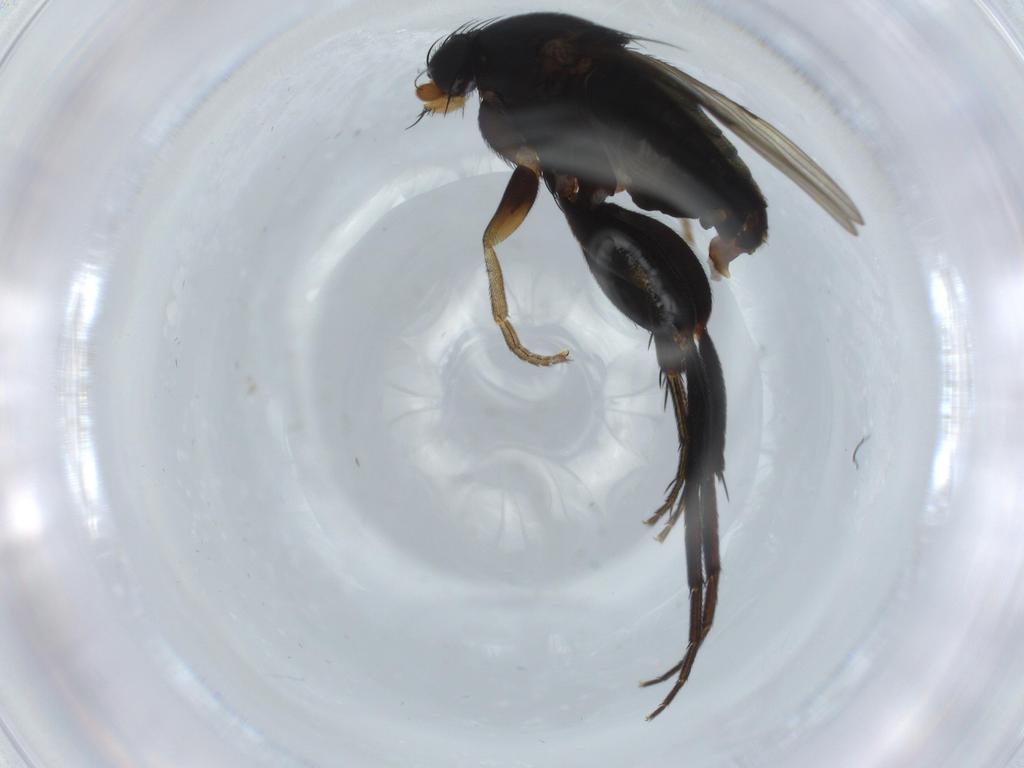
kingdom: Animalia
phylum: Arthropoda
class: Insecta
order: Diptera
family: Phoridae
